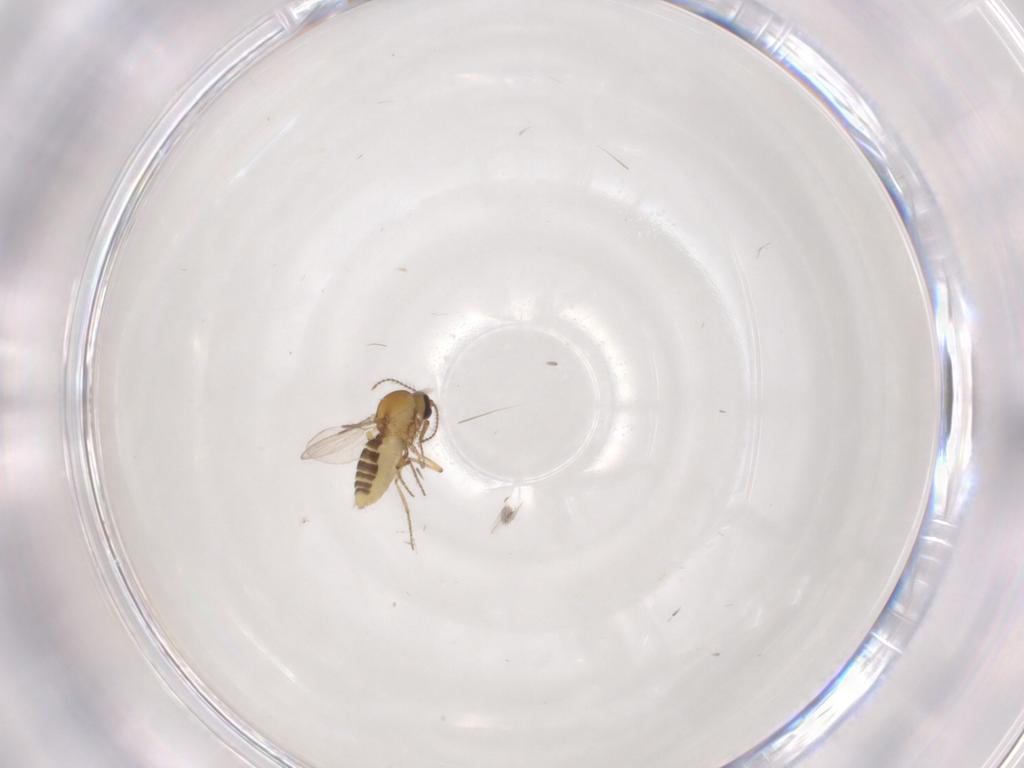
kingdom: Animalia
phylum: Arthropoda
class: Insecta
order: Diptera
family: Ceratopogonidae
